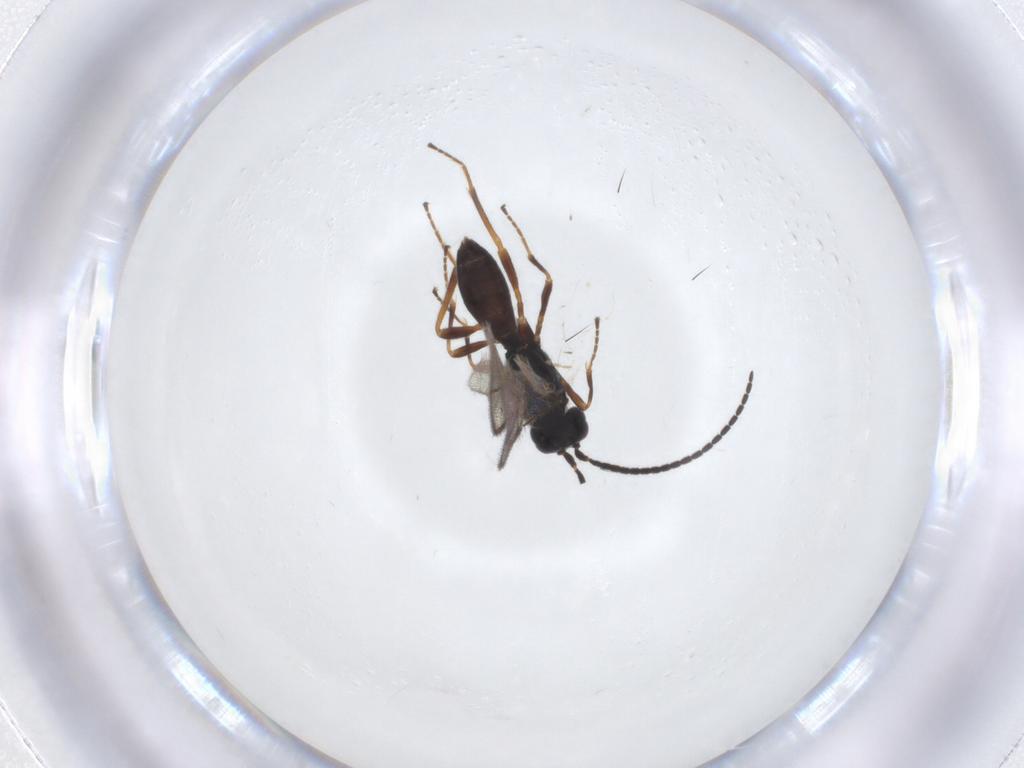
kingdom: Animalia
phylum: Arthropoda
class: Insecta
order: Hymenoptera
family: Braconidae
